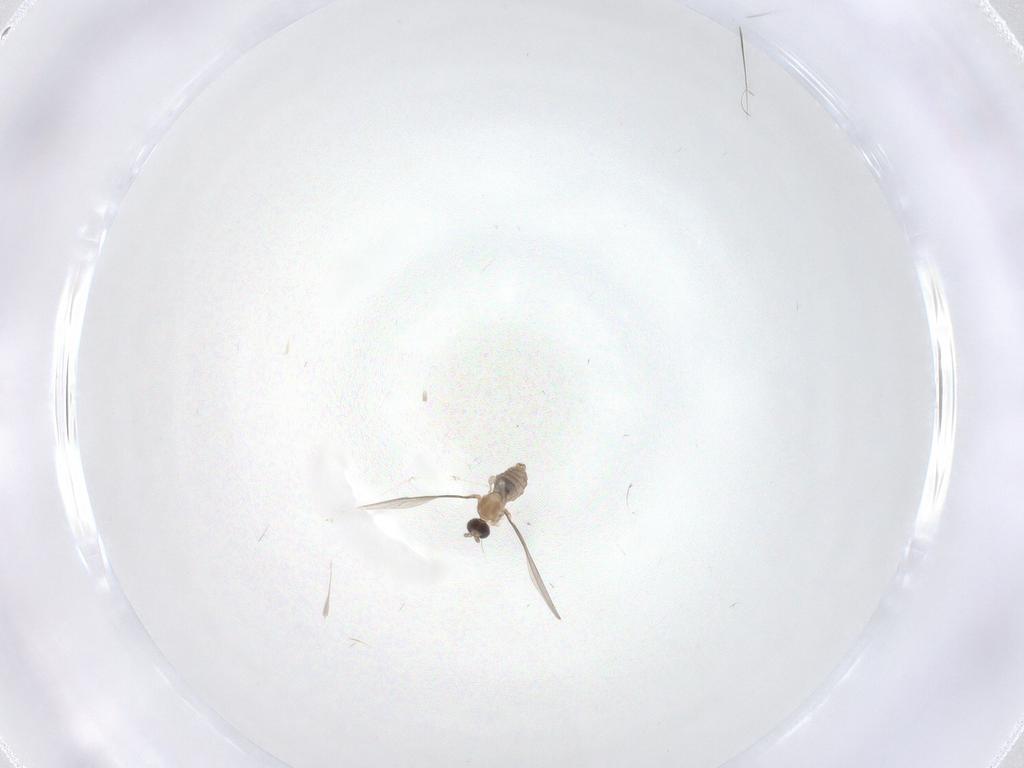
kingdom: Animalia
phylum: Arthropoda
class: Insecta
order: Diptera
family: Cecidomyiidae
